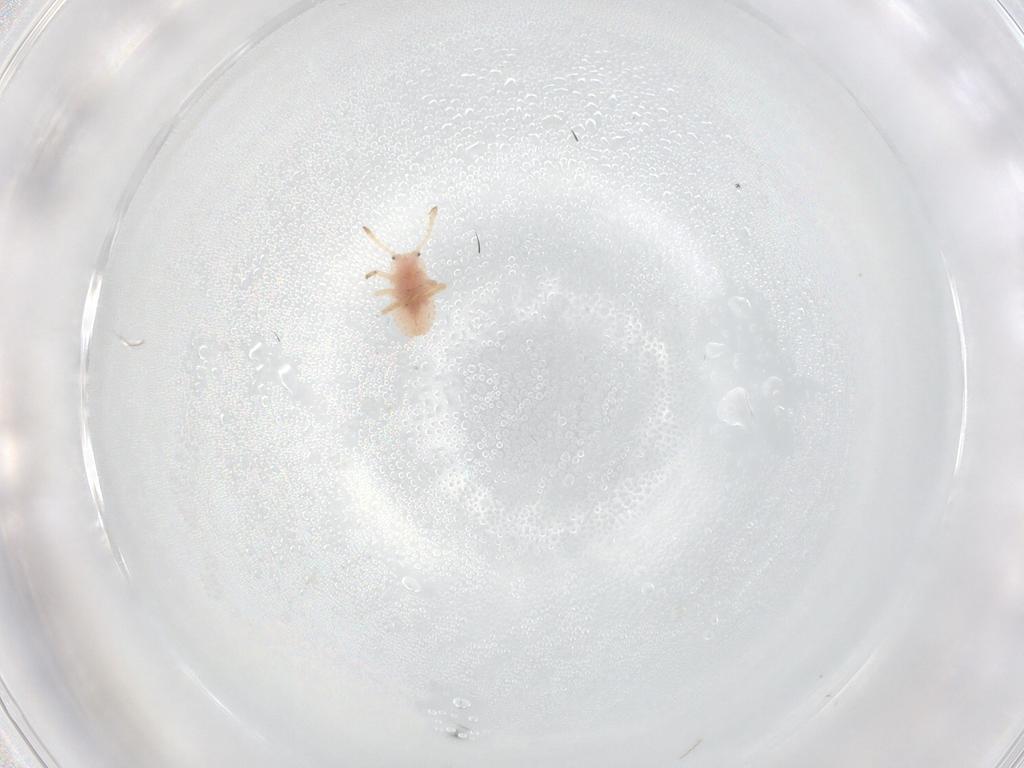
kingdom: Animalia
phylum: Arthropoda
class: Insecta
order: Hemiptera
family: Coccoidea_incertae_sedis
